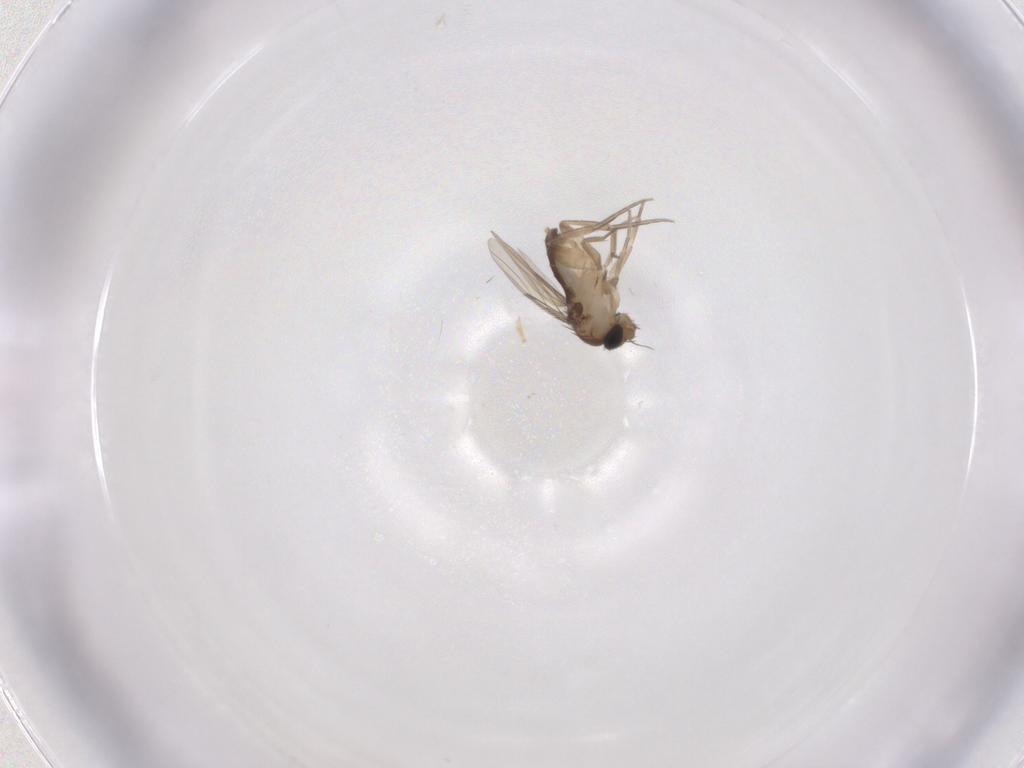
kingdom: Animalia
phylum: Arthropoda
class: Insecta
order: Diptera
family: Phoridae
